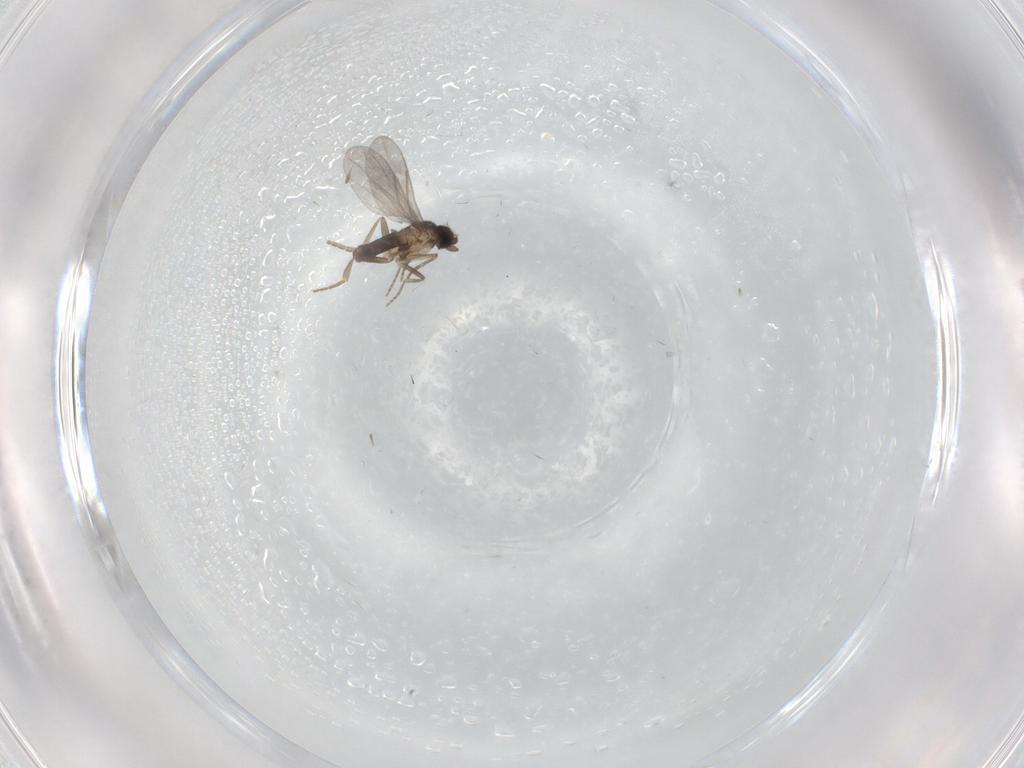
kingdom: Animalia
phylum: Arthropoda
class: Insecta
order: Diptera
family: Limoniidae
